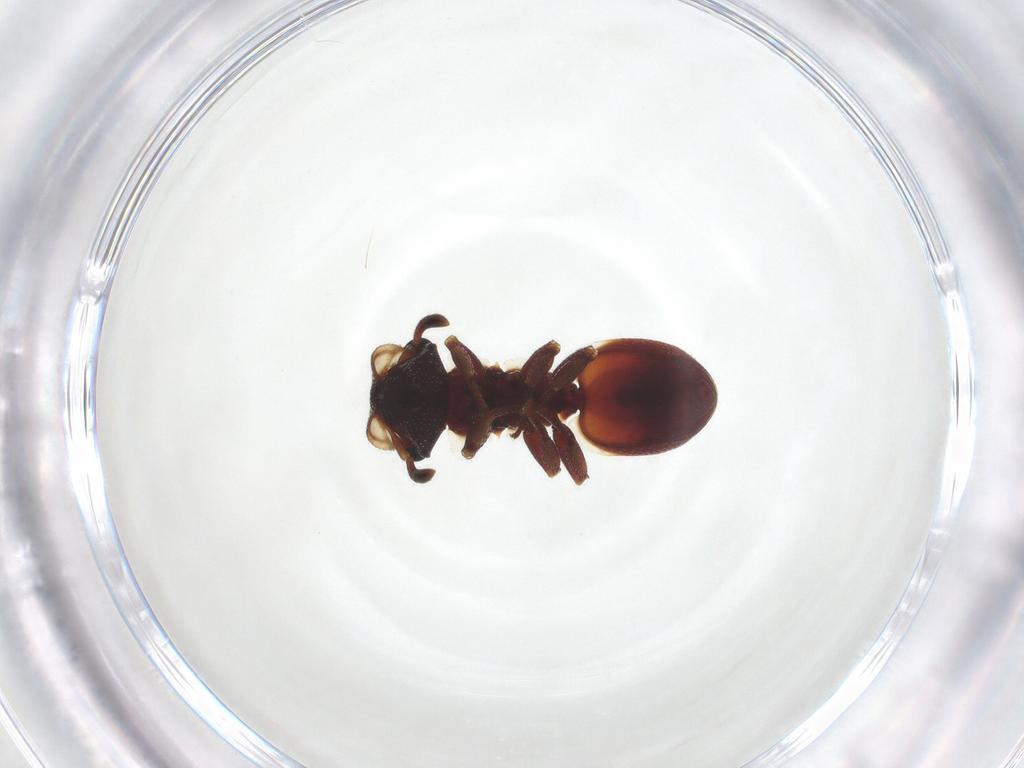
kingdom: Animalia
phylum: Arthropoda
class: Insecta
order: Hymenoptera
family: Formicidae
